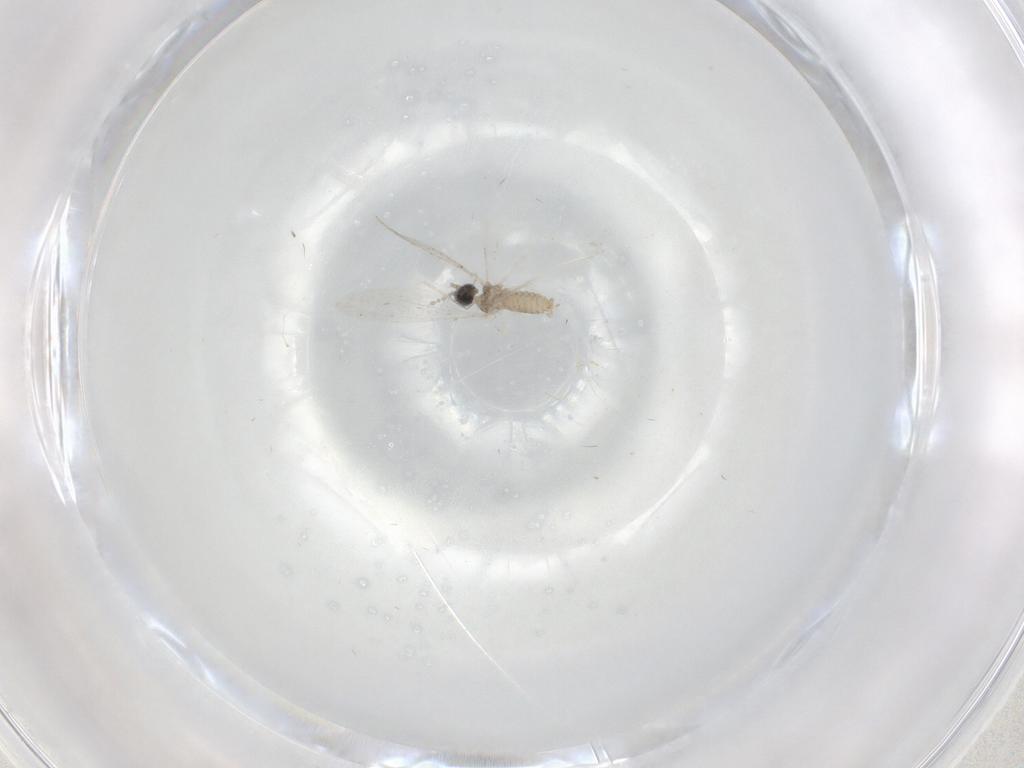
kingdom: Animalia
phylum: Arthropoda
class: Insecta
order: Diptera
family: Cecidomyiidae
